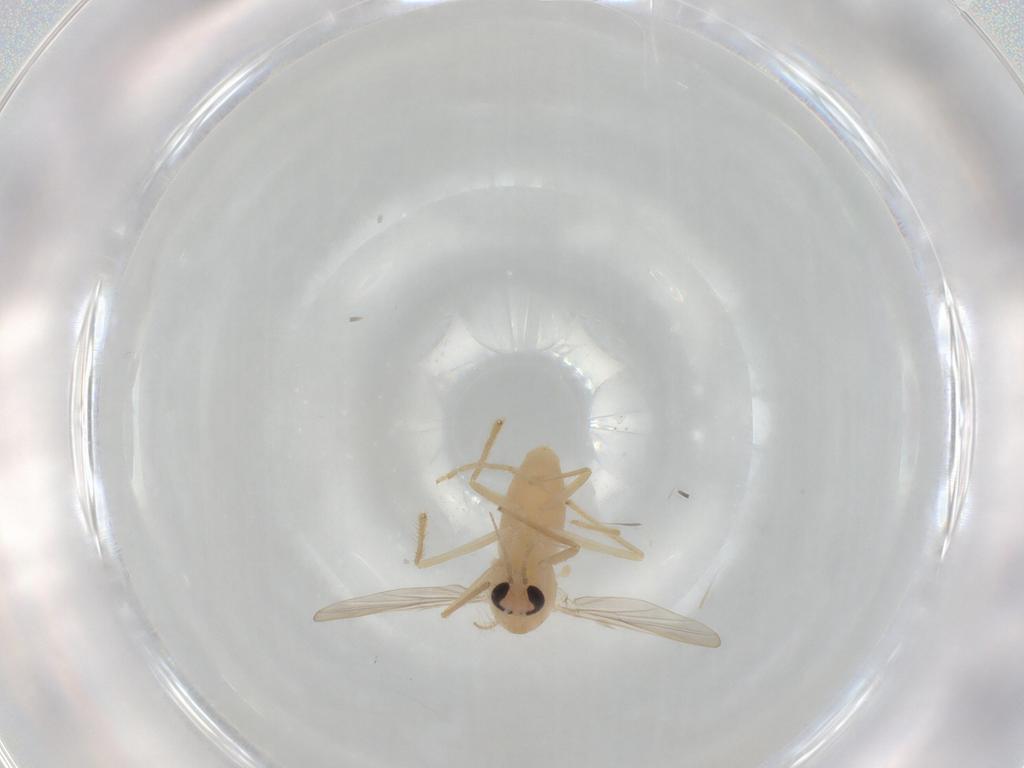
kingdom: Animalia
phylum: Arthropoda
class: Insecta
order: Diptera
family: Chironomidae
